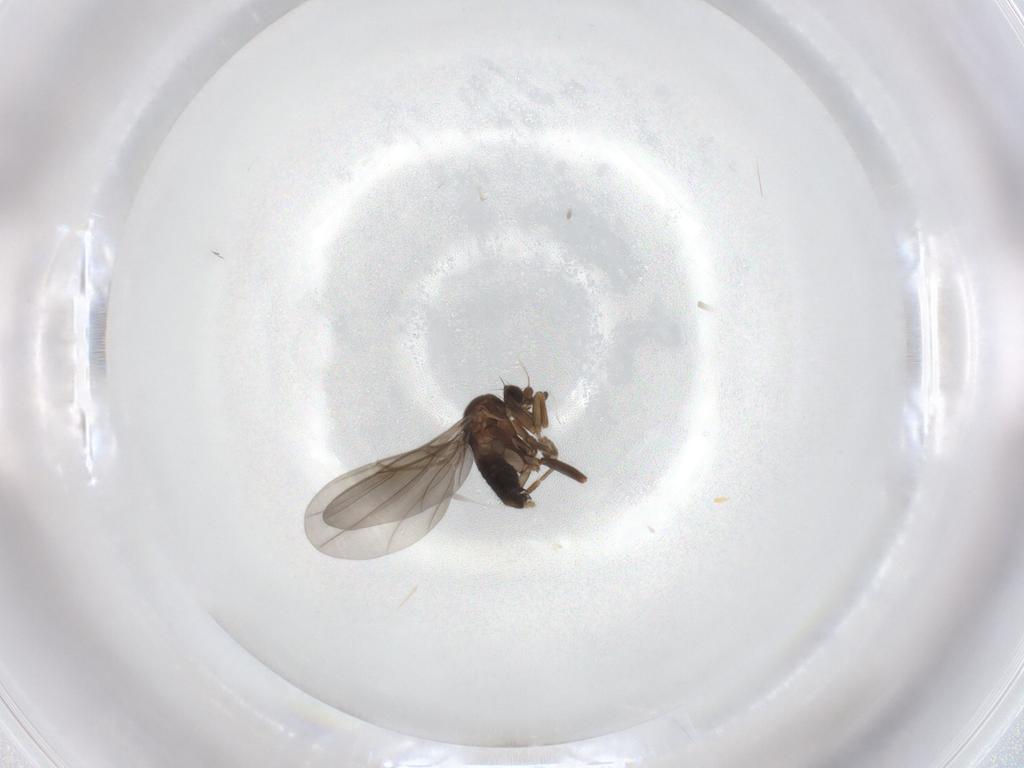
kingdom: Animalia
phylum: Arthropoda
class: Insecta
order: Diptera
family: Phoridae
